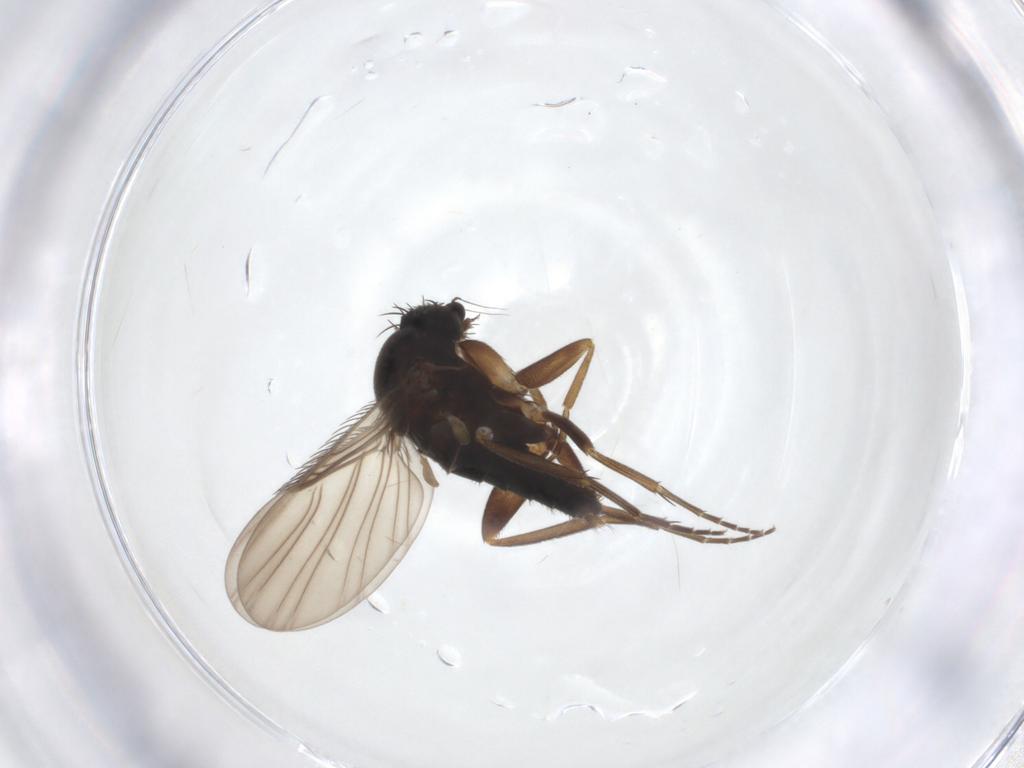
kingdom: Animalia
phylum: Arthropoda
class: Insecta
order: Diptera
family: Phoridae
